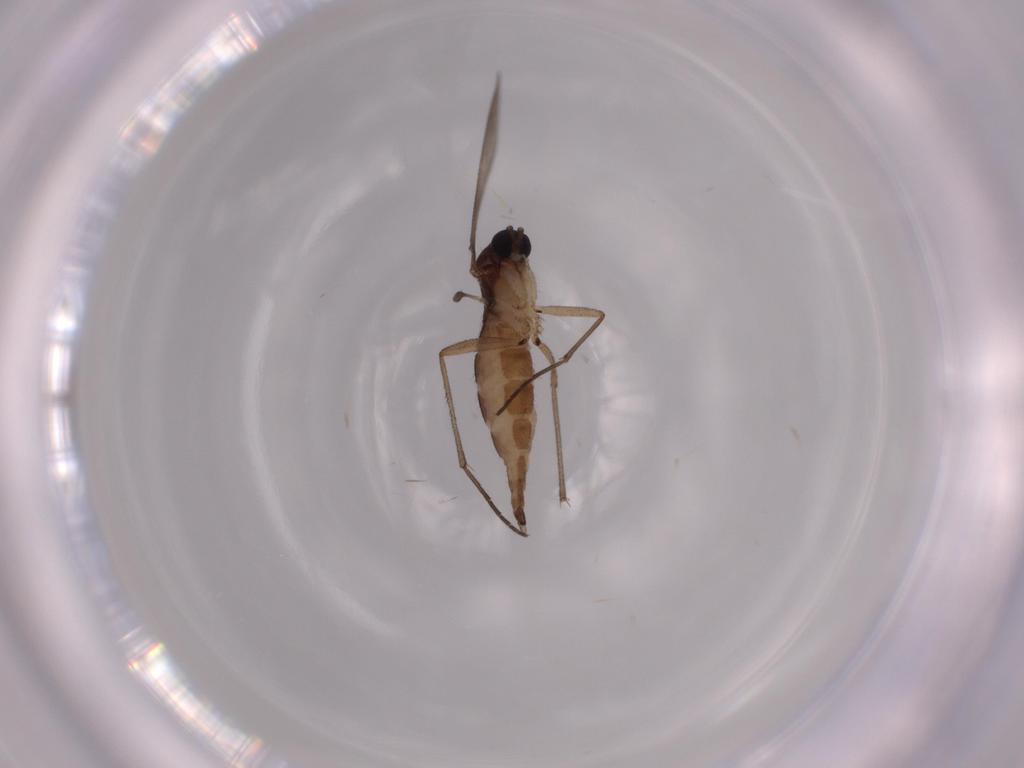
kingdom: Animalia
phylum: Arthropoda
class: Insecta
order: Diptera
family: Sciaridae
